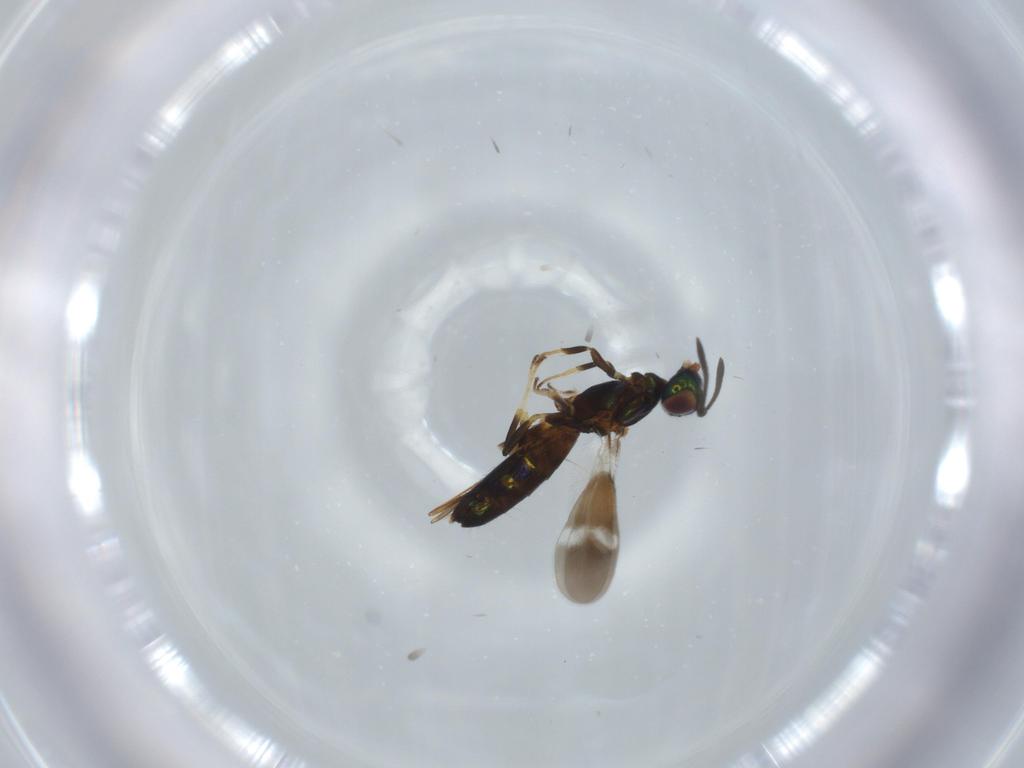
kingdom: Animalia
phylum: Arthropoda
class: Insecta
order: Hymenoptera
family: Eupelmidae
